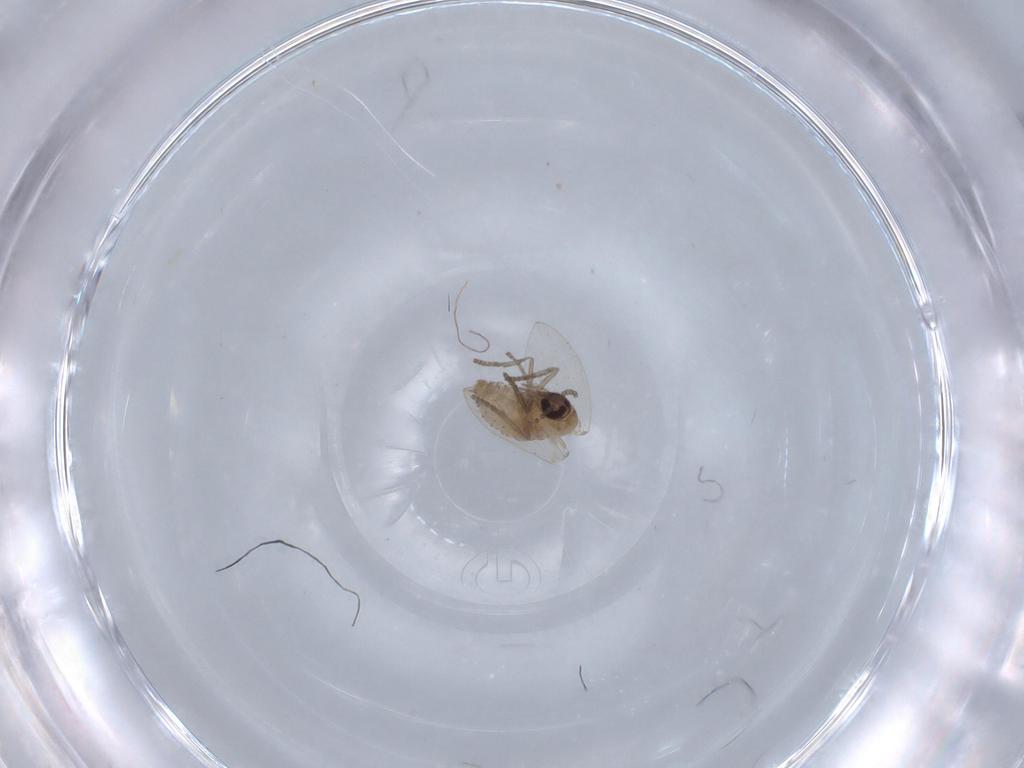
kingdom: Animalia
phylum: Arthropoda
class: Insecta
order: Diptera
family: Psychodidae
